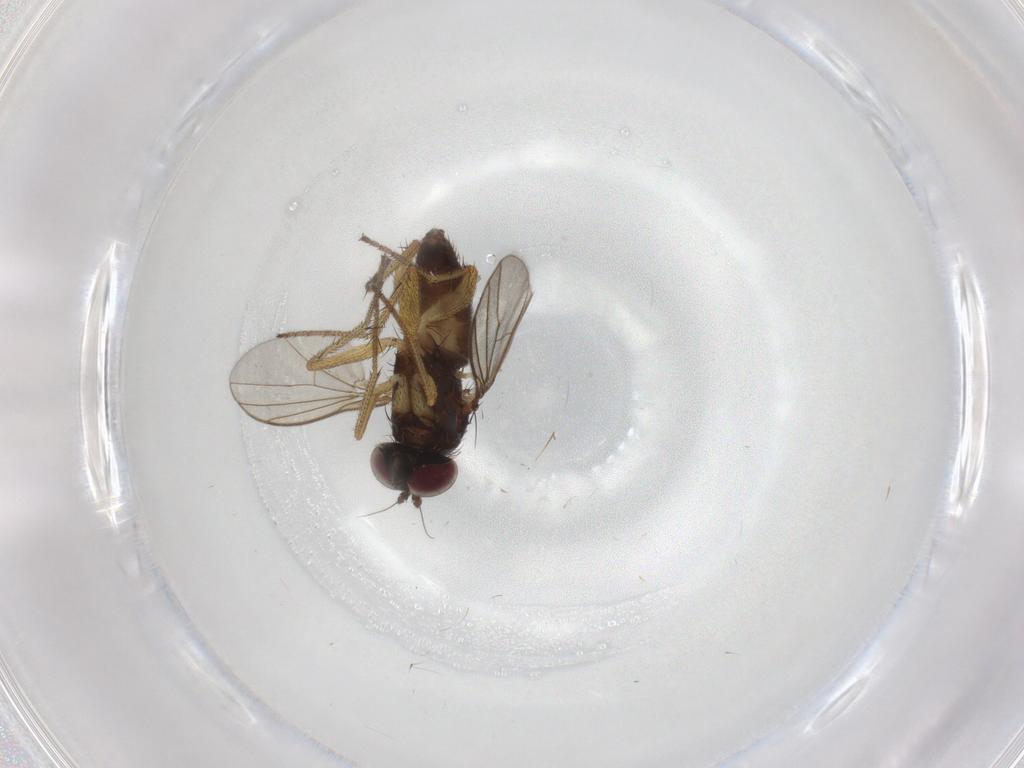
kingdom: Animalia
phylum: Arthropoda
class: Insecta
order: Diptera
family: Dolichopodidae
